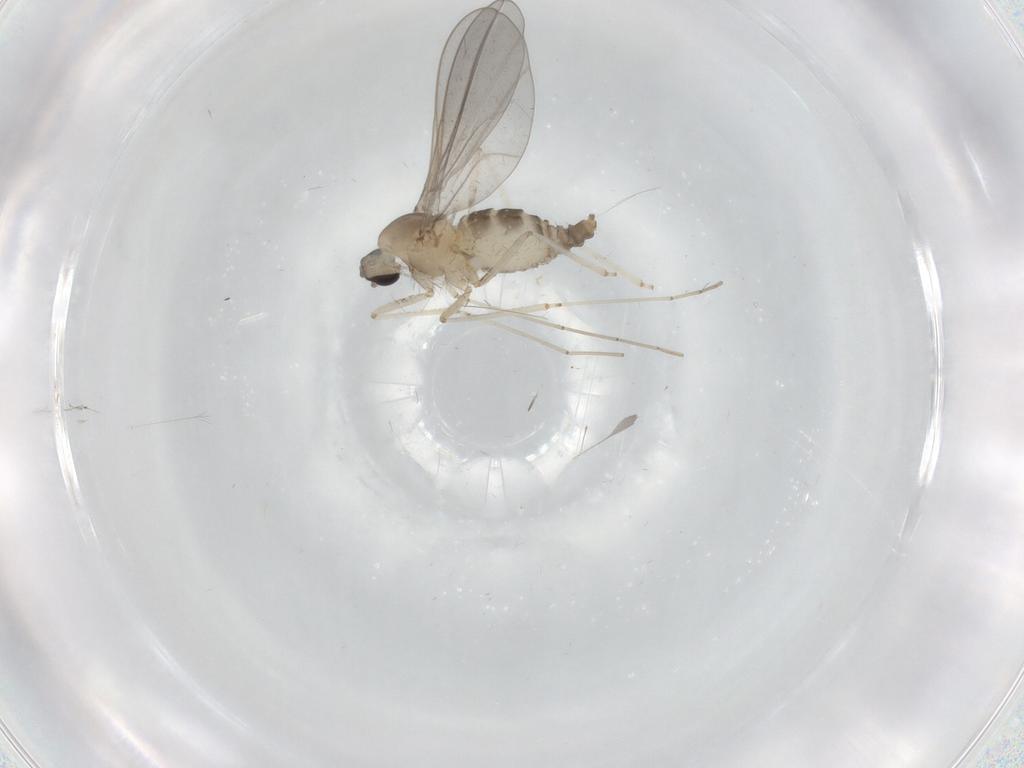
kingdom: Animalia
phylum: Arthropoda
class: Insecta
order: Diptera
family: Cecidomyiidae
